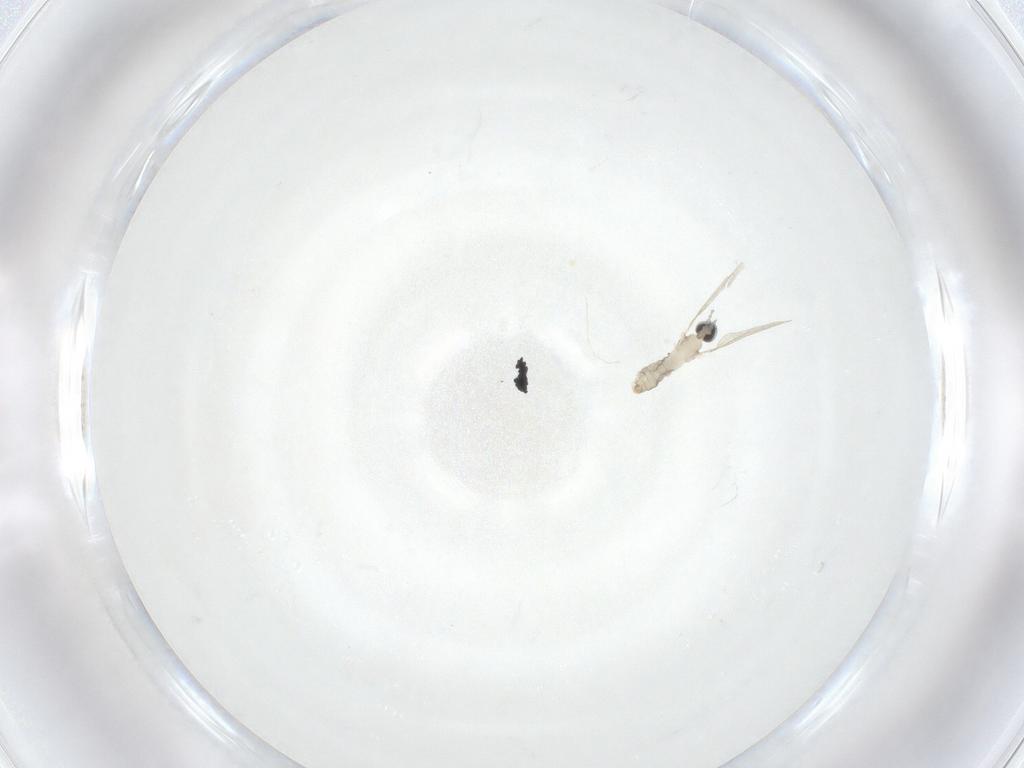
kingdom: Animalia
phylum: Arthropoda
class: Insecta
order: Diptera
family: Cecidomyiidae
